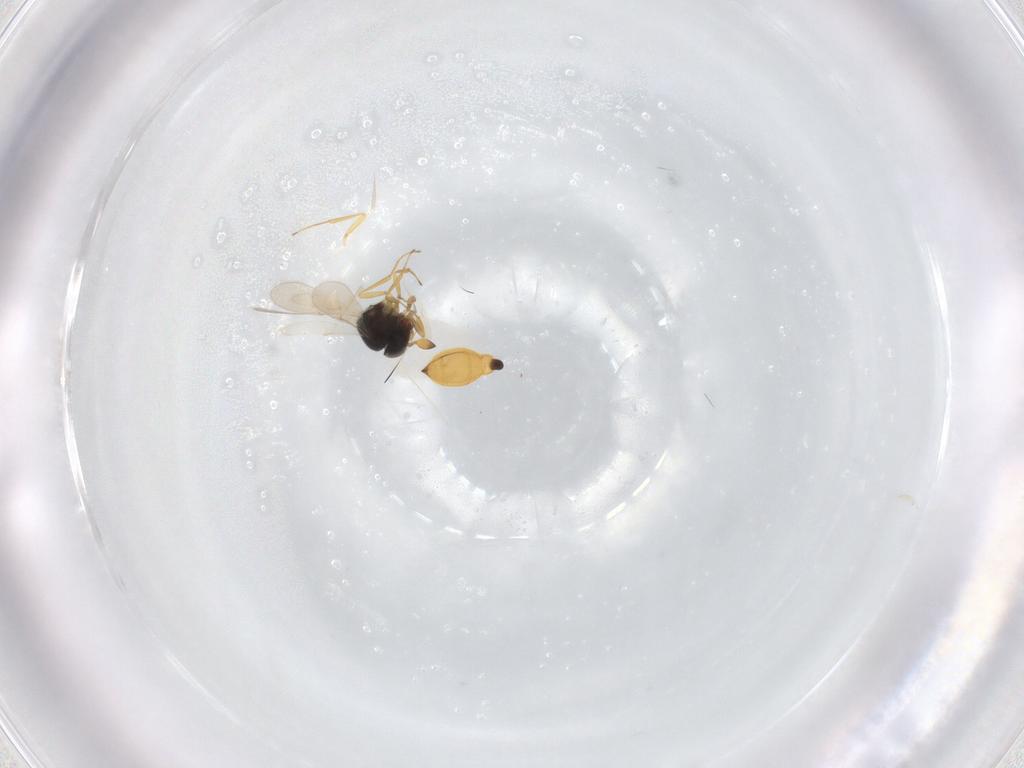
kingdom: Animalia
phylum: Arthropoda
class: Insecta
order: Hymenoptera
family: Scelionidae
